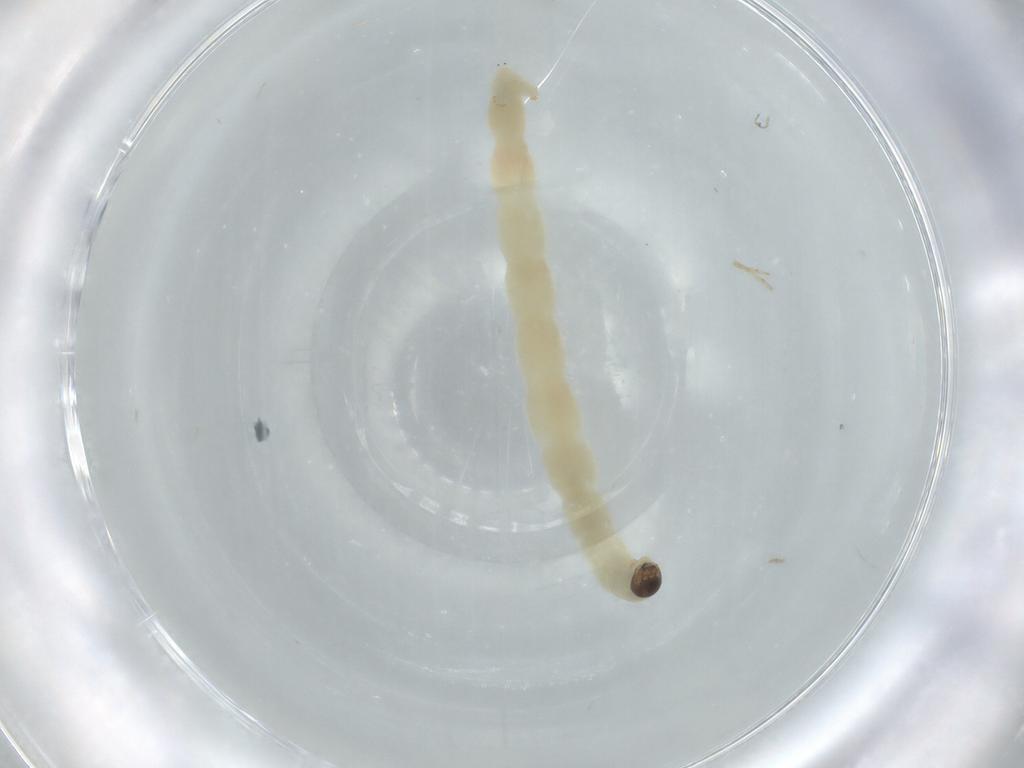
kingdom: Animalia
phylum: Arthropoda
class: Insecta
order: Diptera
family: Chironomidae
